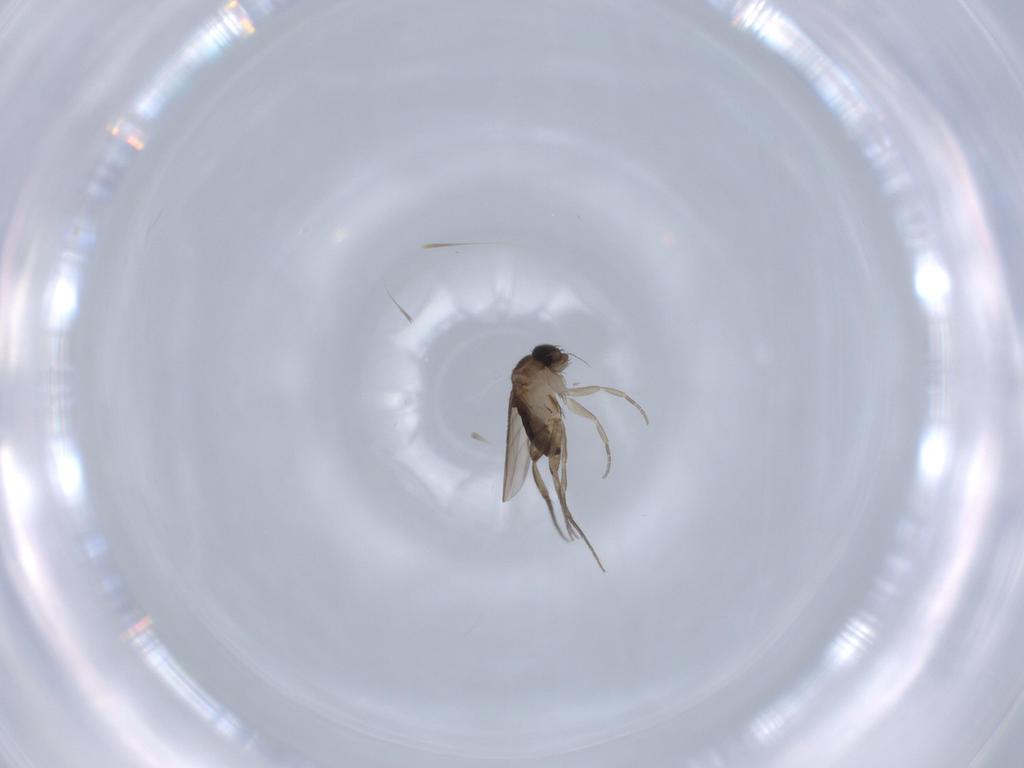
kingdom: Animalia
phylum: Arthropoda
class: Insecta
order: Diptera
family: Phoridae
